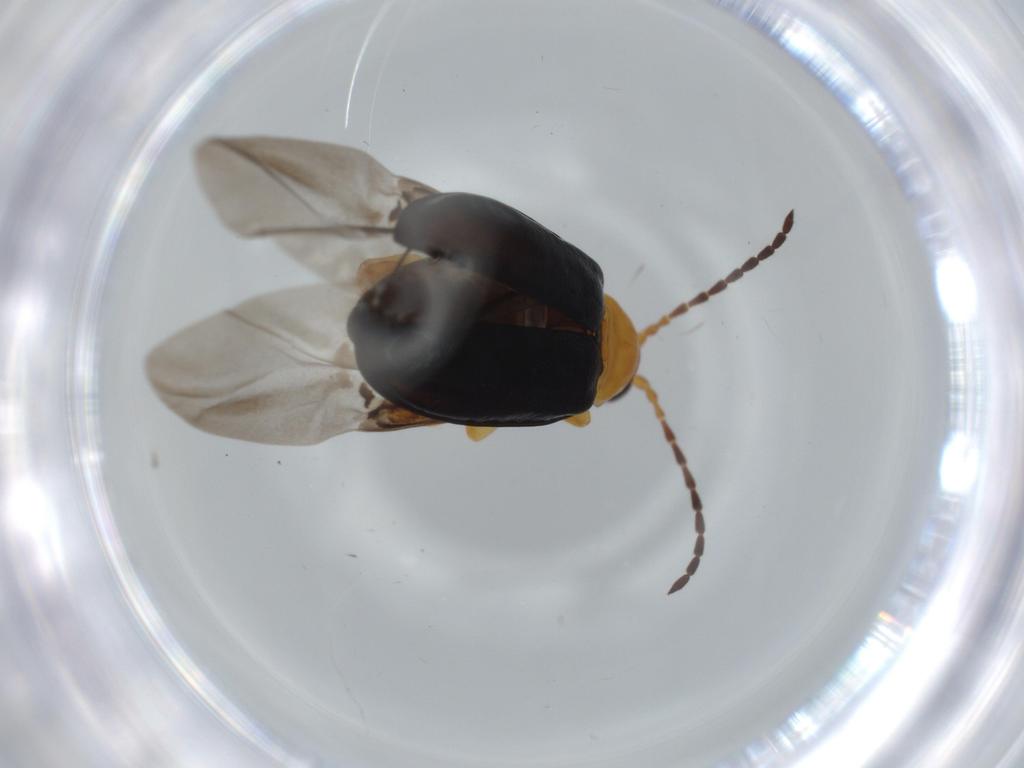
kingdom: Animalia
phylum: Arthropoda
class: Insecta
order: Coleoptera
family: Chrysomelidae
